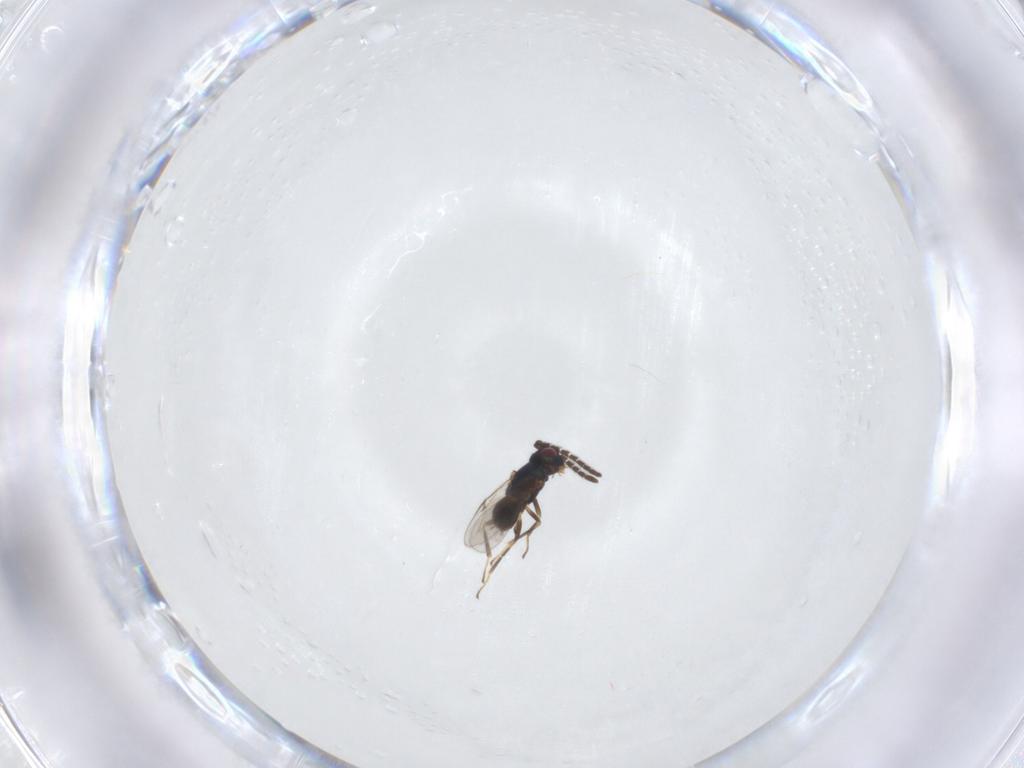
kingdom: Animalia
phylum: Arthropoda
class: Insecta
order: Hymenoptera
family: Encyrtidae
